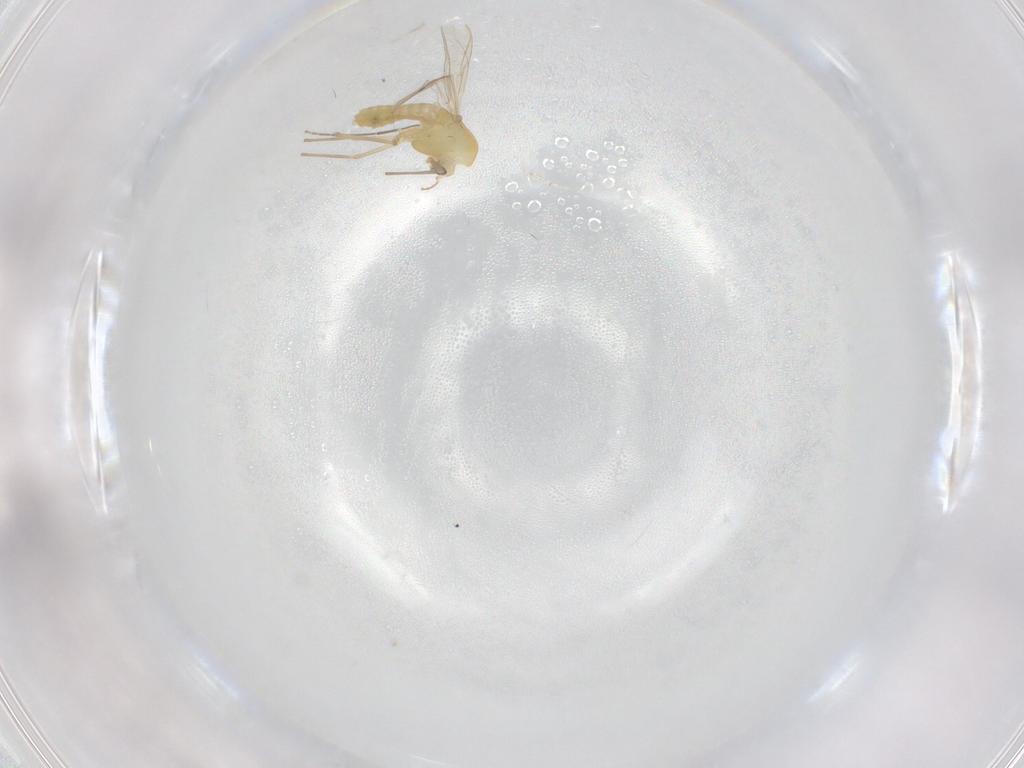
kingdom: Animalia
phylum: Arthropoda
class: Insecta
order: Diptera
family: Chironomidae
